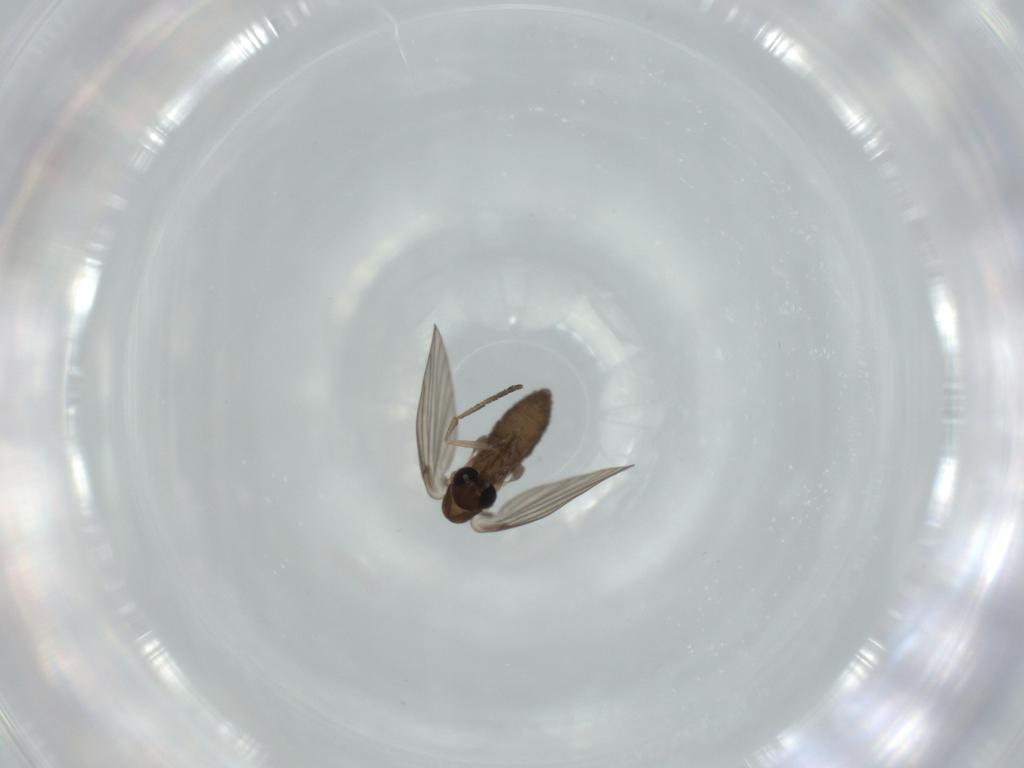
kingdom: Animalia
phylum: Arthropoda
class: Insecta
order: Diptera
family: Psychodidae
